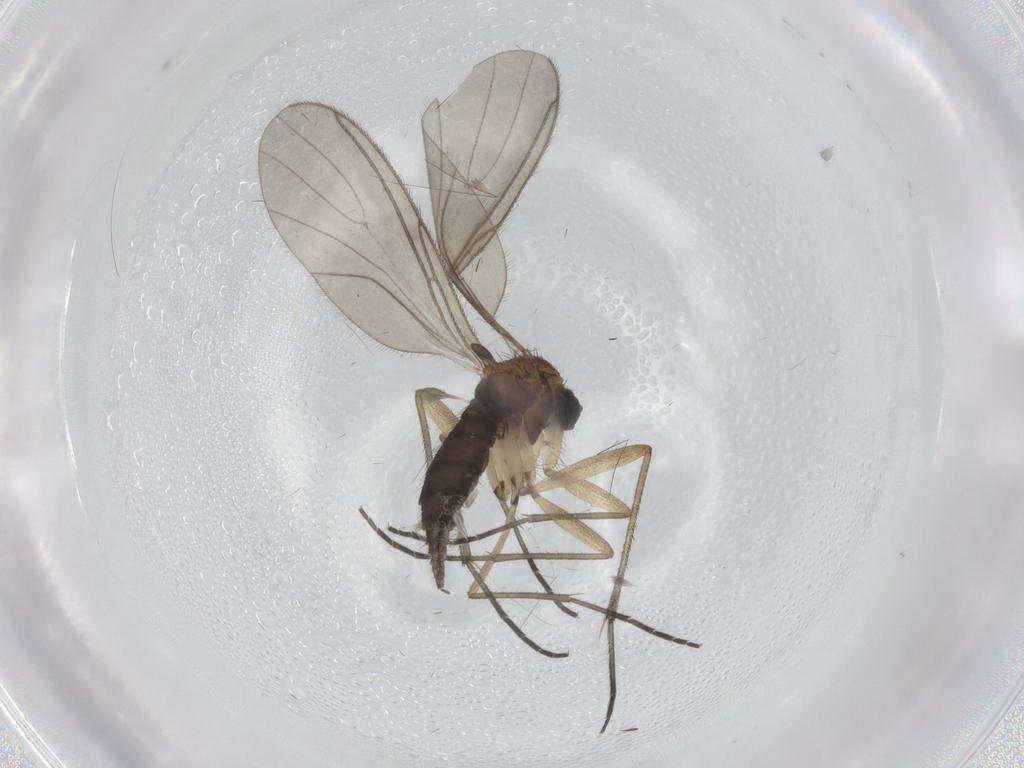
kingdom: Animalia
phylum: Arthropoda
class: Insecta
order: Diptera
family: Sciaridae
